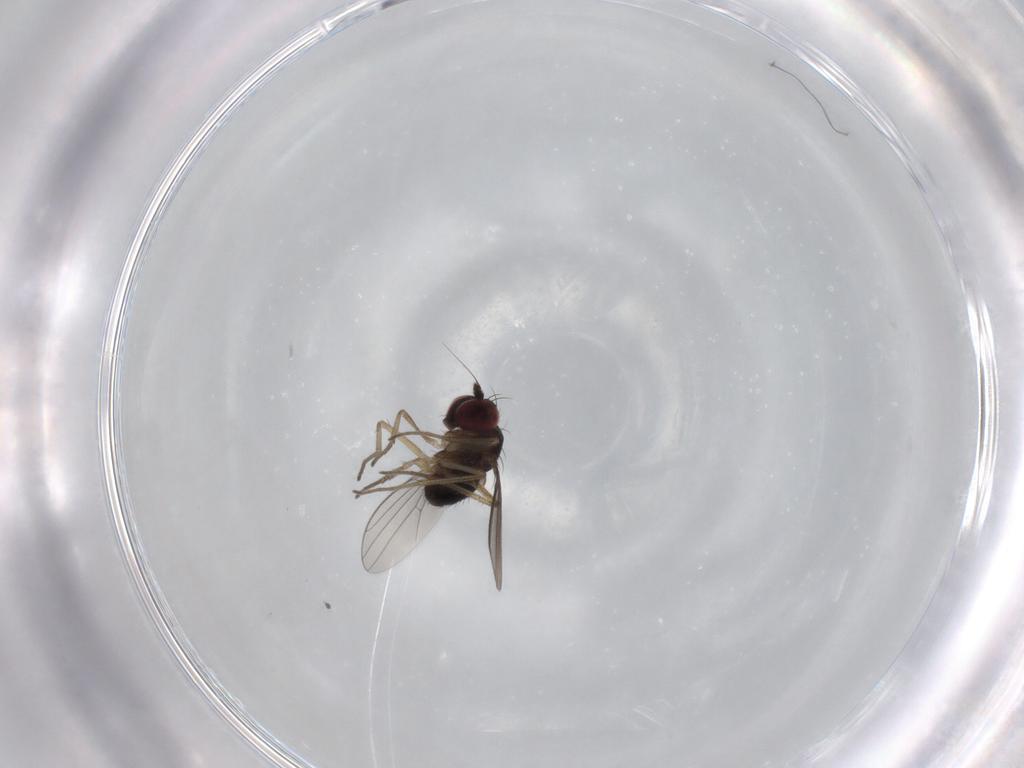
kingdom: Animalia
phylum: Arthropoda
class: Insecta
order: Diptera
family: Dolichopodidae
